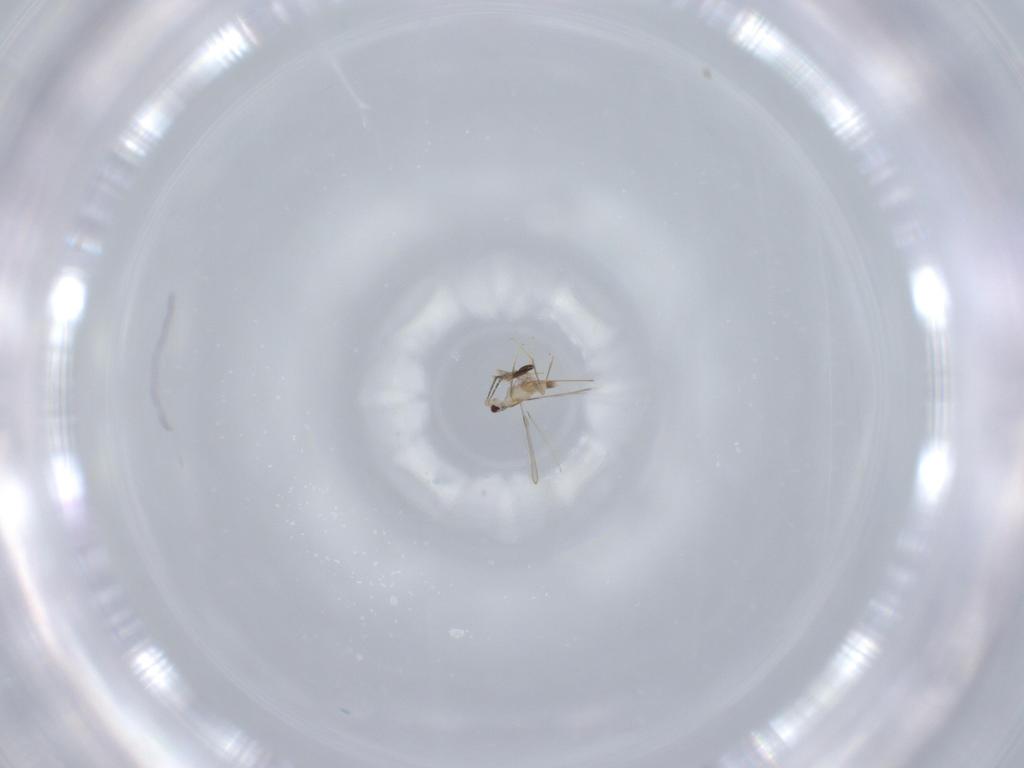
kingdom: Animalia
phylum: Arthropoda
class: Insecta
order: Hymenoptera
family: Mymaridae
